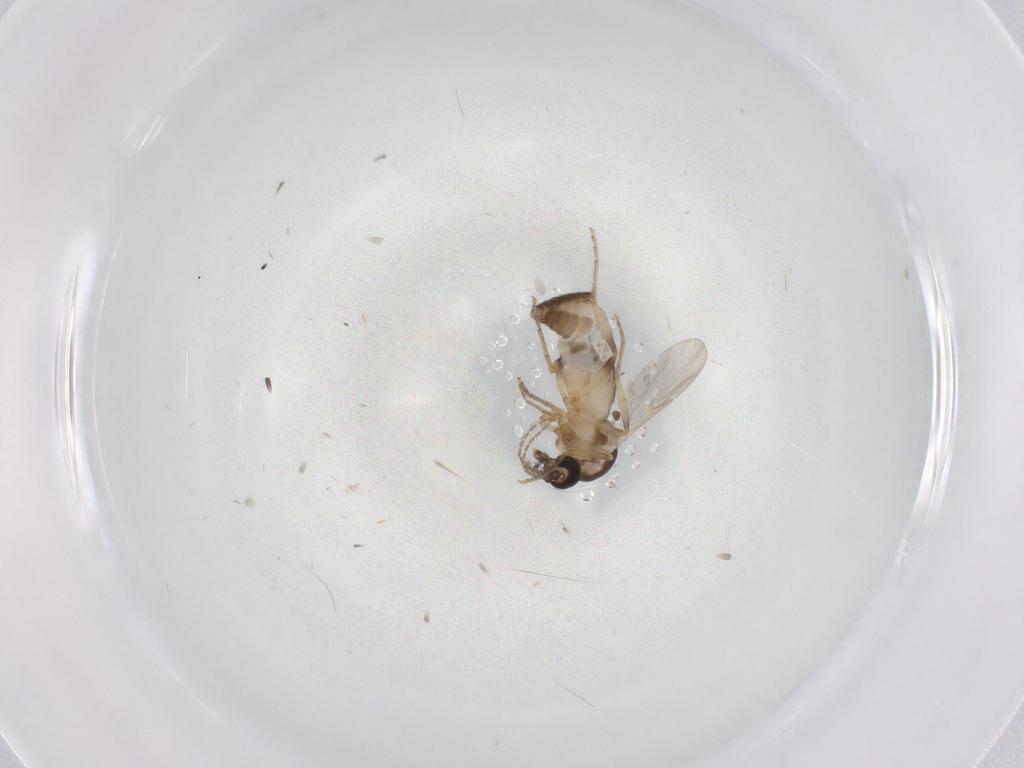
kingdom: Animalia
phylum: Arthropoda
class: Insecta
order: Diptera
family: Ceratopogonidae
